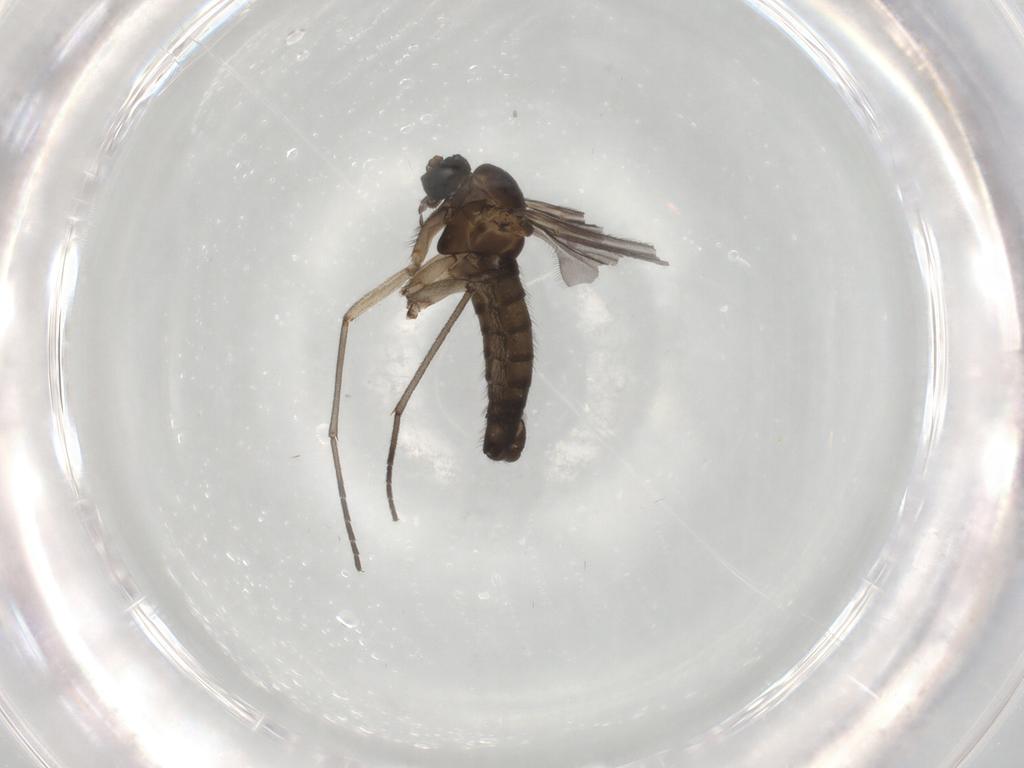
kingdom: Animalia
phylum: Arthropoda
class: Insecta
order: Diptera
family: Sciaridae
